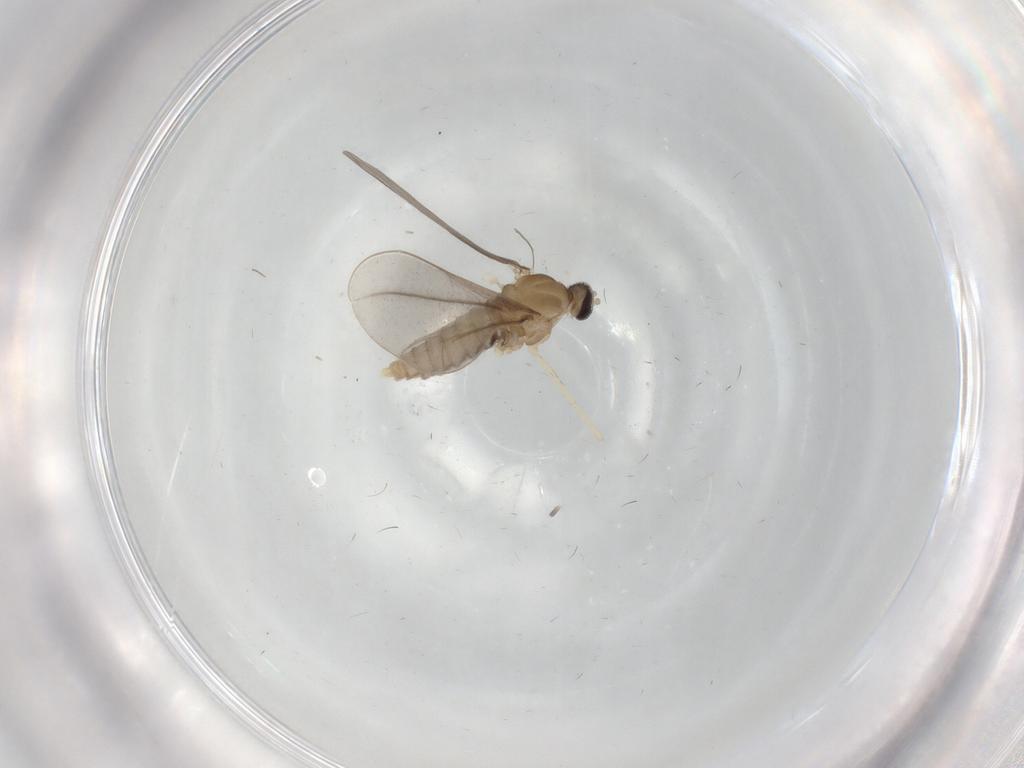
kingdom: Animalia
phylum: Arthropoda
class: Insecta
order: Diptera
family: Cecidomyiidae
